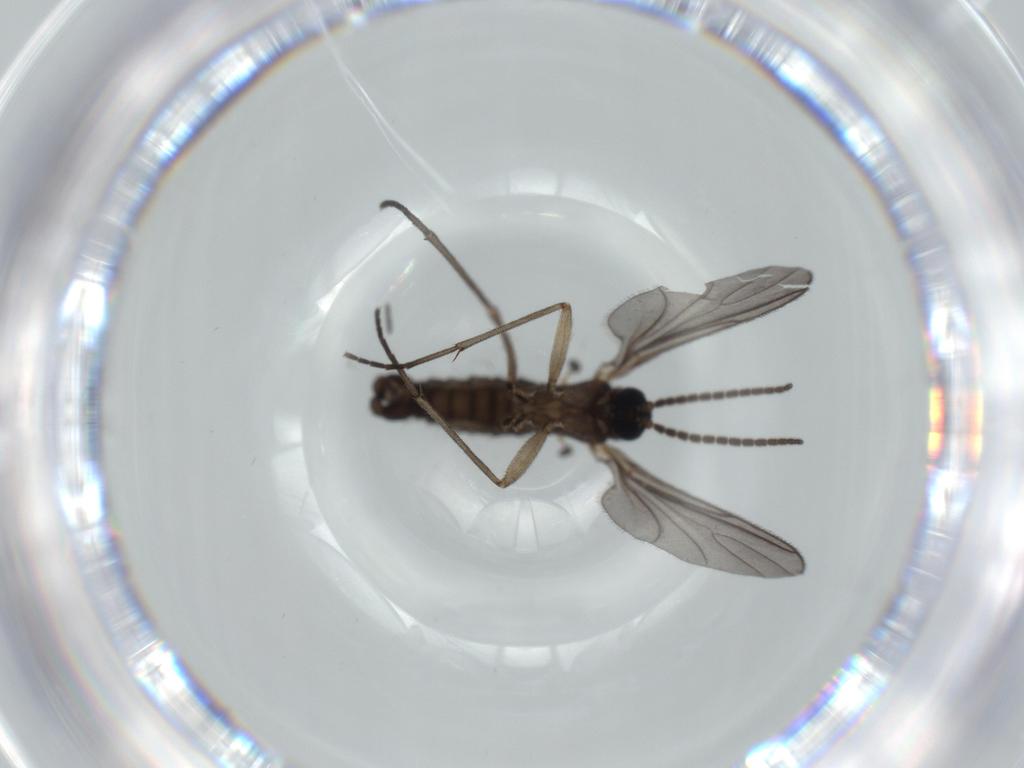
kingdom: Animalia
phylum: Arthropoda
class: Insecta
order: Diptera
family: Sciaridae
